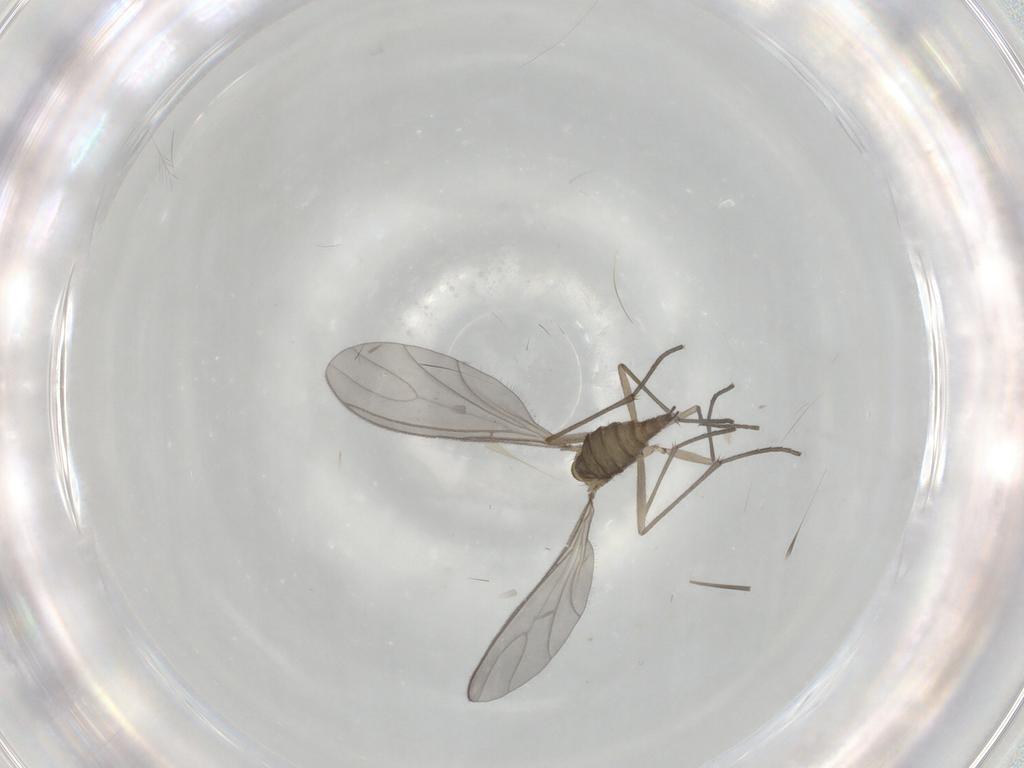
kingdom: Animalia
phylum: Arthropoda
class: Insecta
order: Diptera
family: Sciaridae
